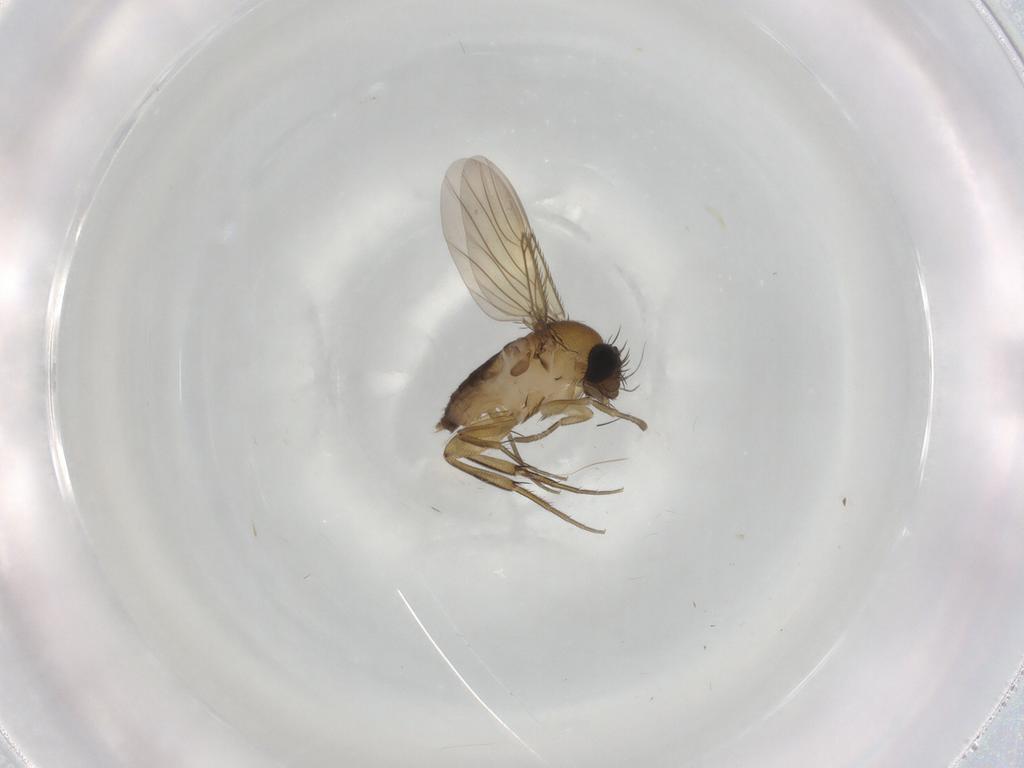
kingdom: Animalia
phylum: Arthropoda
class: Insecta
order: Diptera
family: Phoridae
